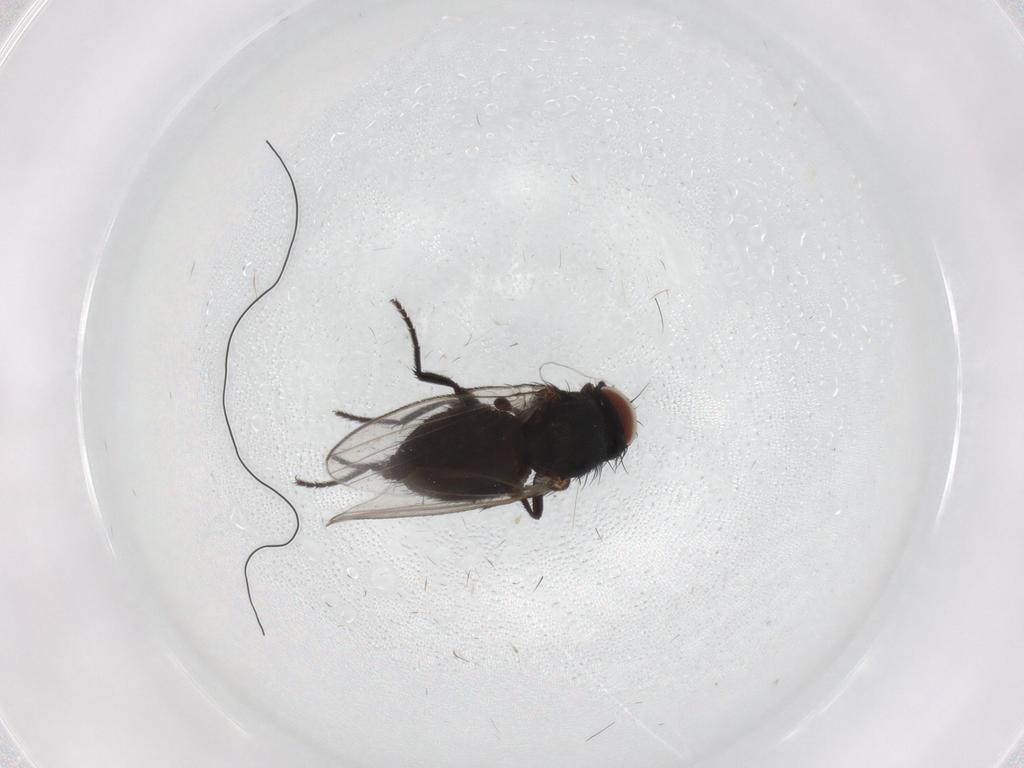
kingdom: Animalia
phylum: Arthropoda
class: Insecta
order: Diptera
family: Milichiidae
